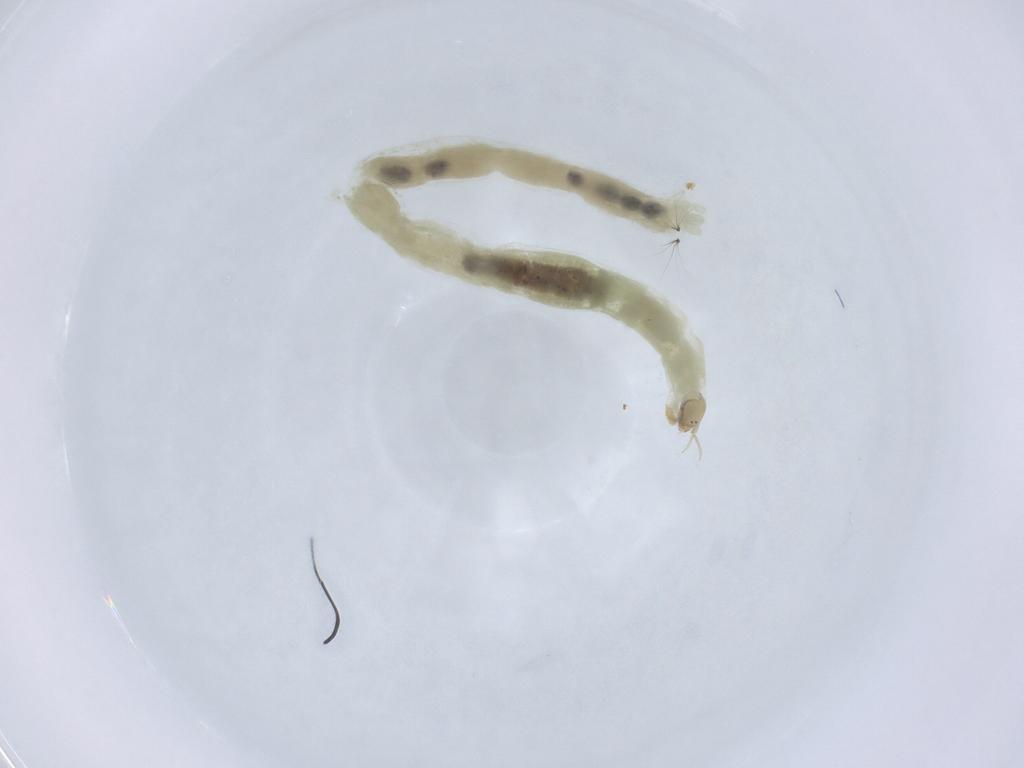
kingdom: Animalia
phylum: Arthropoda
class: Insecta
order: Diptera
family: Chironomidae
